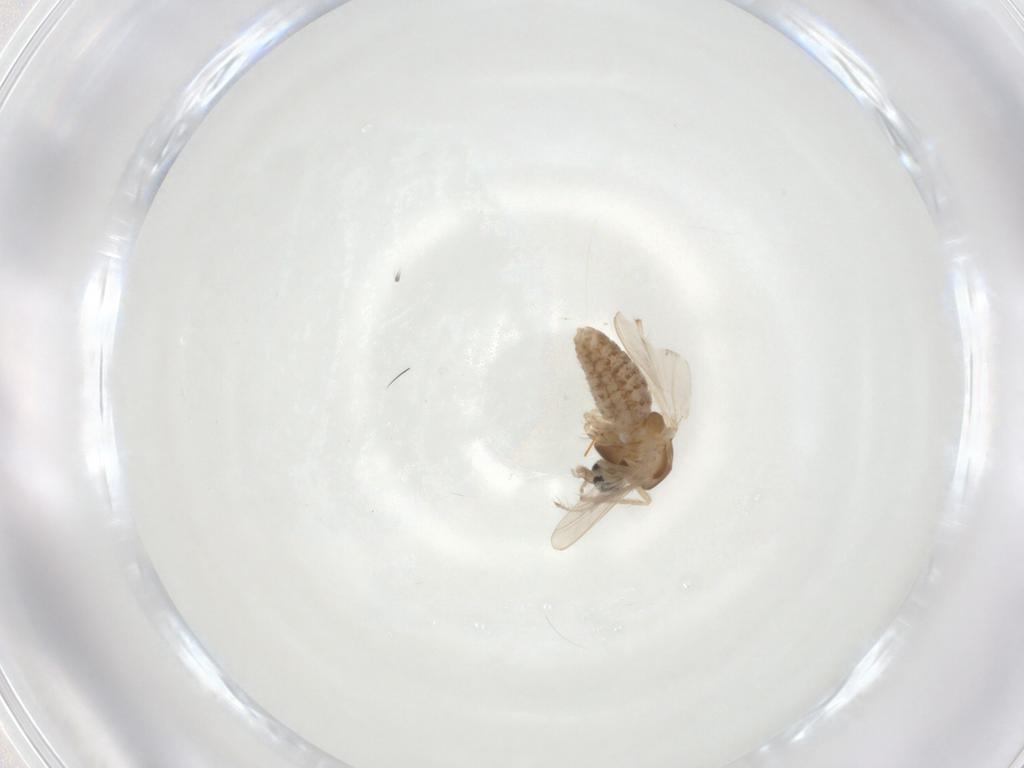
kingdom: Animalia
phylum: Arthropoda
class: Insecta
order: Diptera
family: Chironomidae
